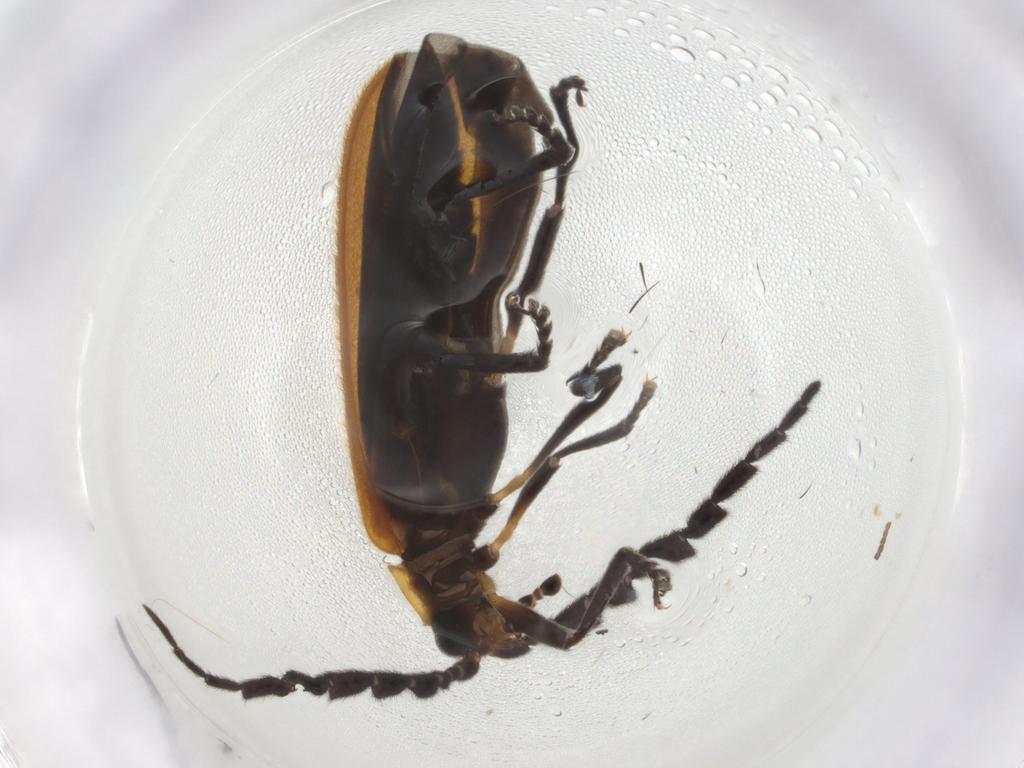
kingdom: Animalia
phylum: Arthropoda
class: Insecta
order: Coleoptera
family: Lycidae
